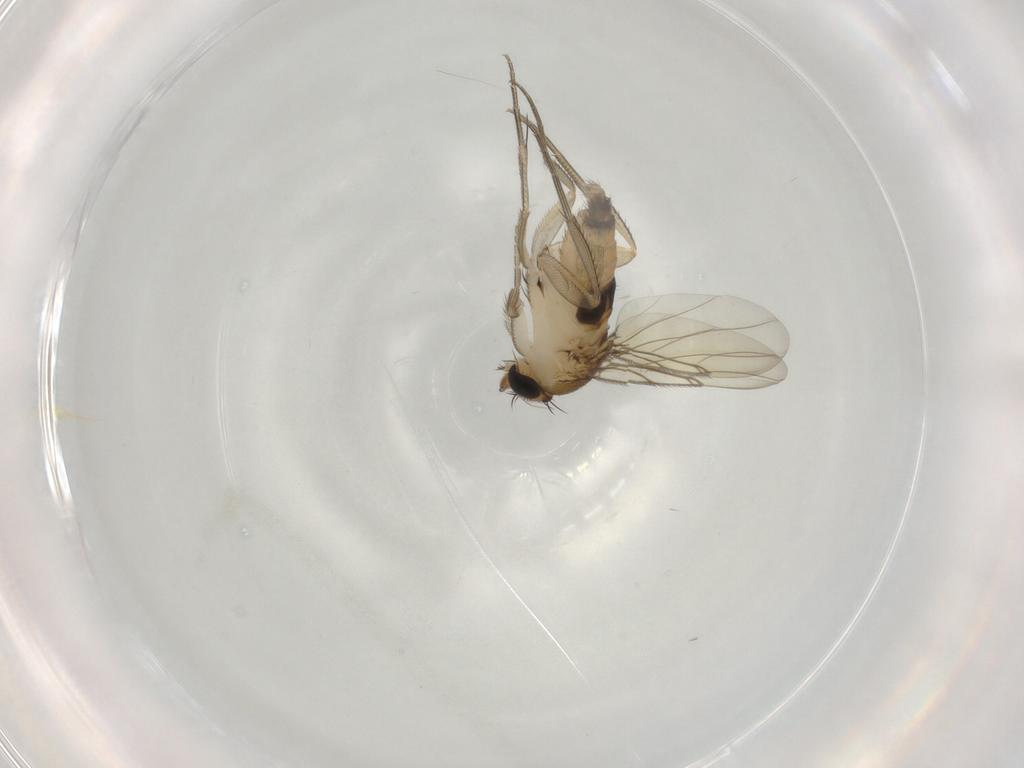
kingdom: Animalia
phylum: Arthropoda
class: Insecta
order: Diptera
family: Phoridae
